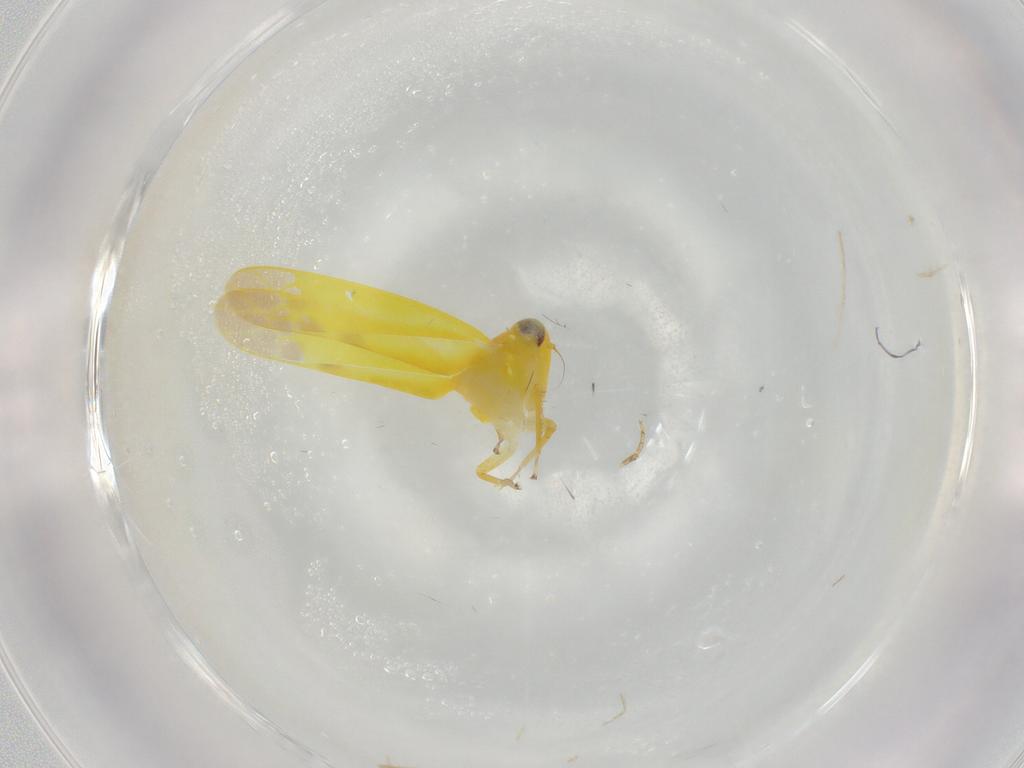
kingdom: Animalia
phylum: Arthropoda
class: Insecta
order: Hemiptera
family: Cicadellidae
